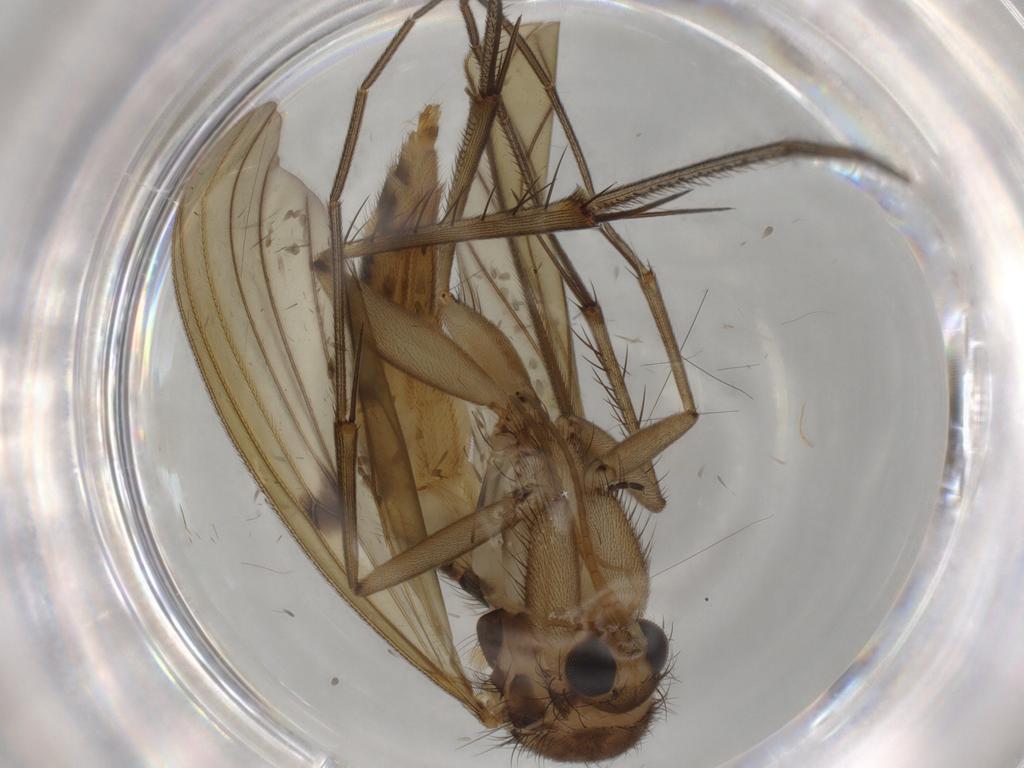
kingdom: Animalia
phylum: Arthropoda
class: Insecta
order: Diptera
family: Mycetophilidae
